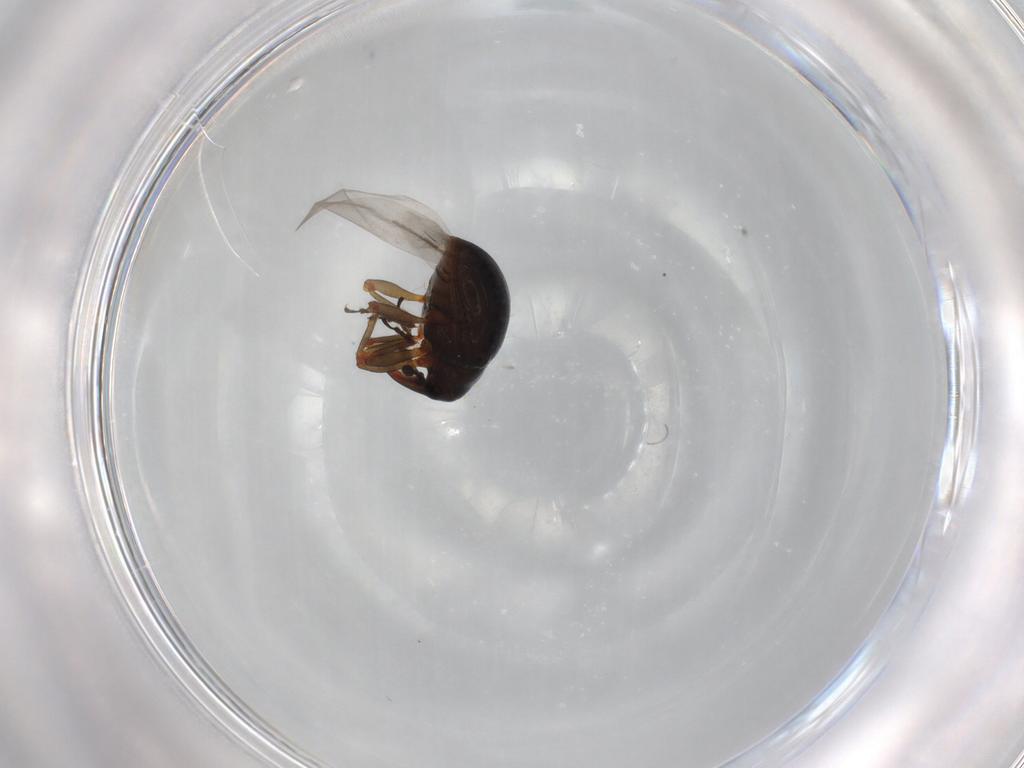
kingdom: Animalia
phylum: Arthropoda
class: Insecta
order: Coleoptera
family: Curculionidae
